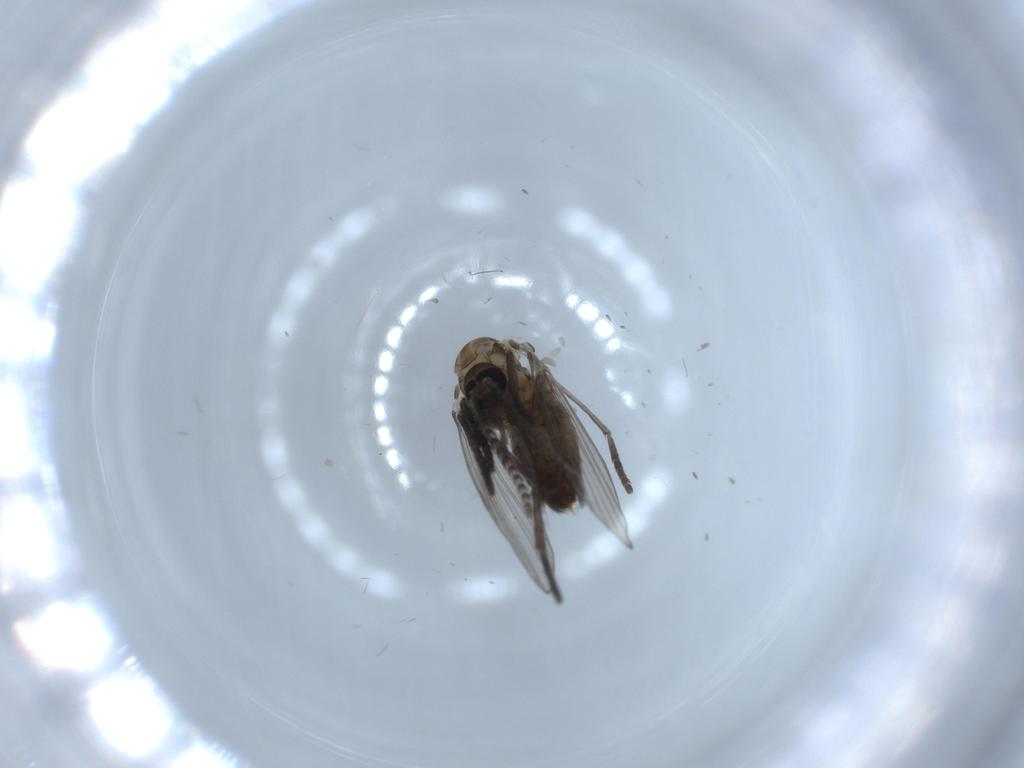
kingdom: Animalia
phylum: Arthropoda
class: Insecta
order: Diptera
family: Psychodidae
